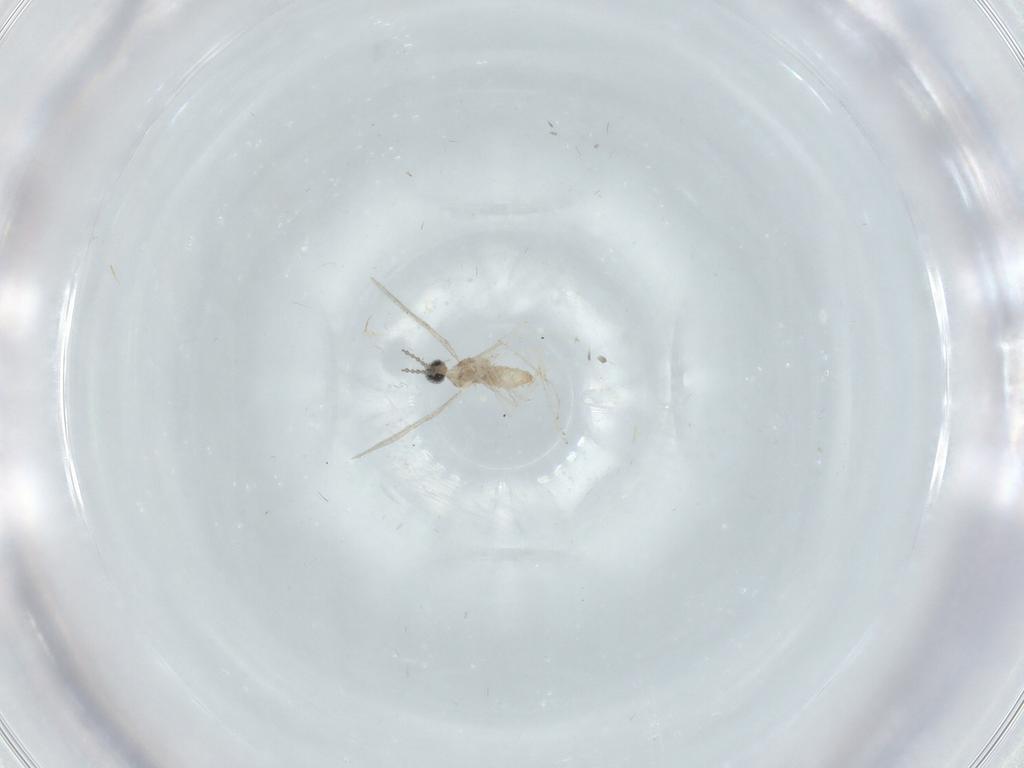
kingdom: Animalia
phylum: Arthropoda
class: Insecta
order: Diptera
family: Cecidomyiidae
